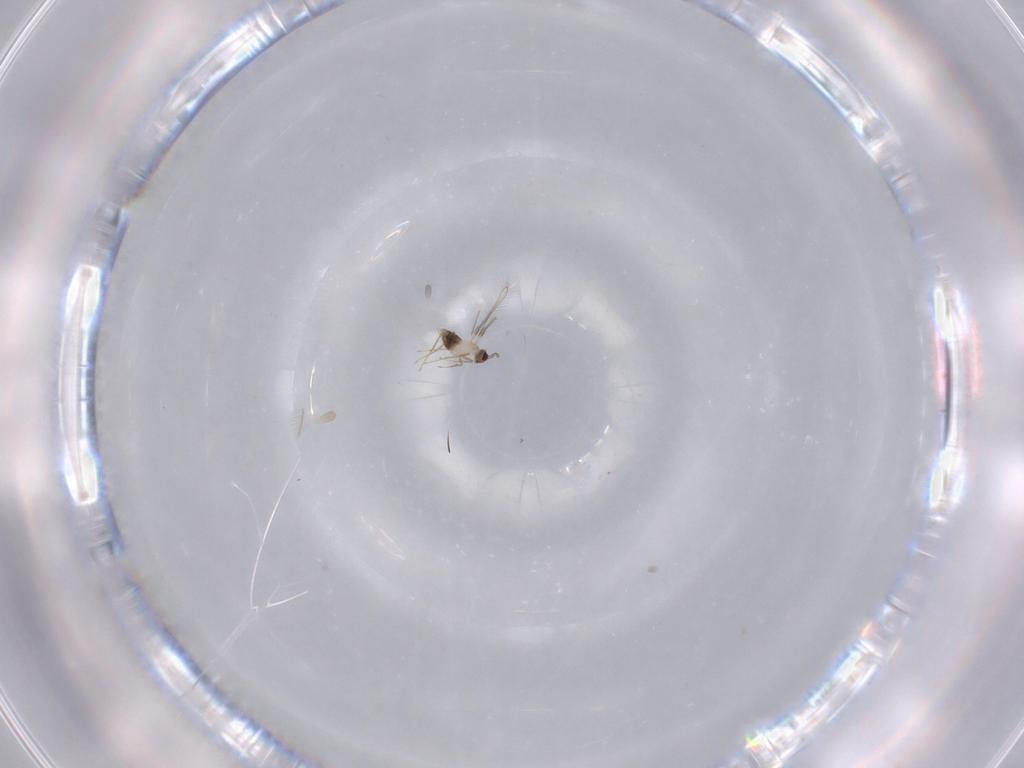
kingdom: Animalia
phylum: Arthropoda
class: Insecta
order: Hymenoptera
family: Mymaridae
